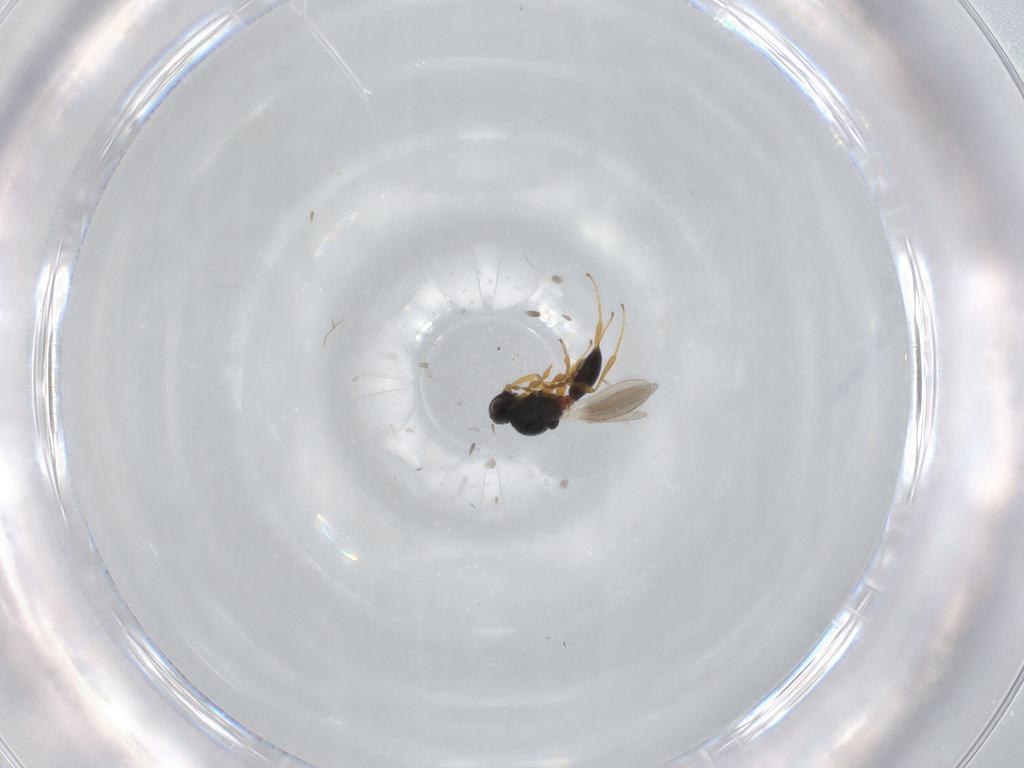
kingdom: Animalia
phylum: Arthropoda
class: Insecta
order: Hymenoptera
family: Platygastridae
